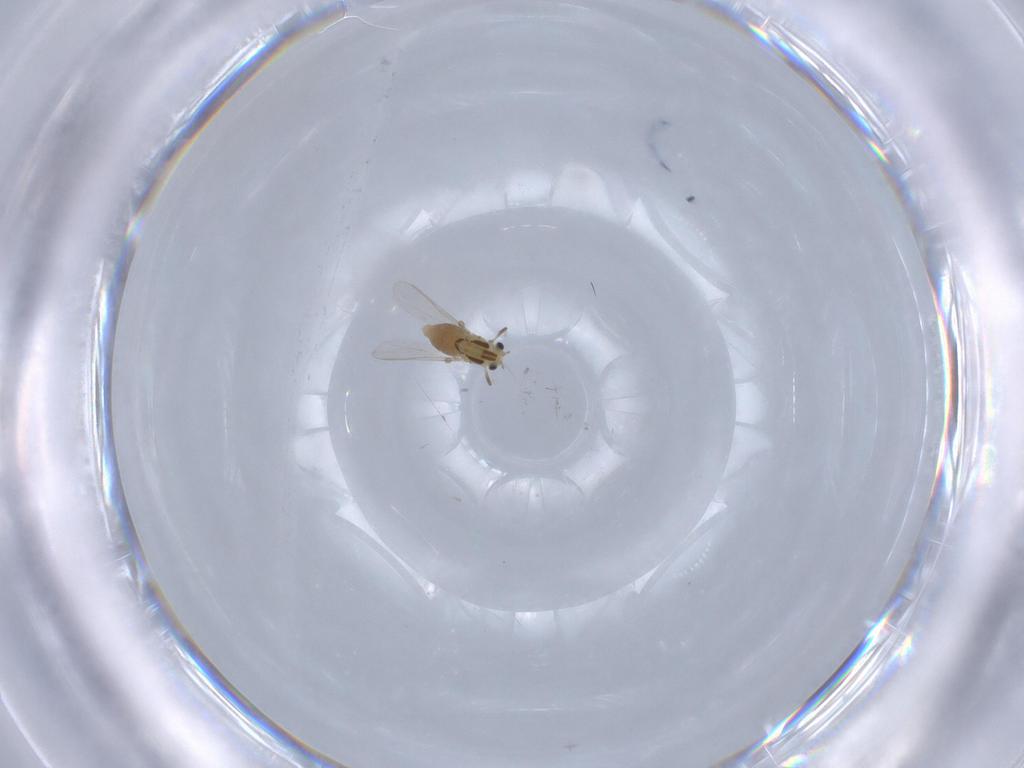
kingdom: Animalia
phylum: Arthropoda
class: Insecta
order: Diptera
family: Chironomidae
